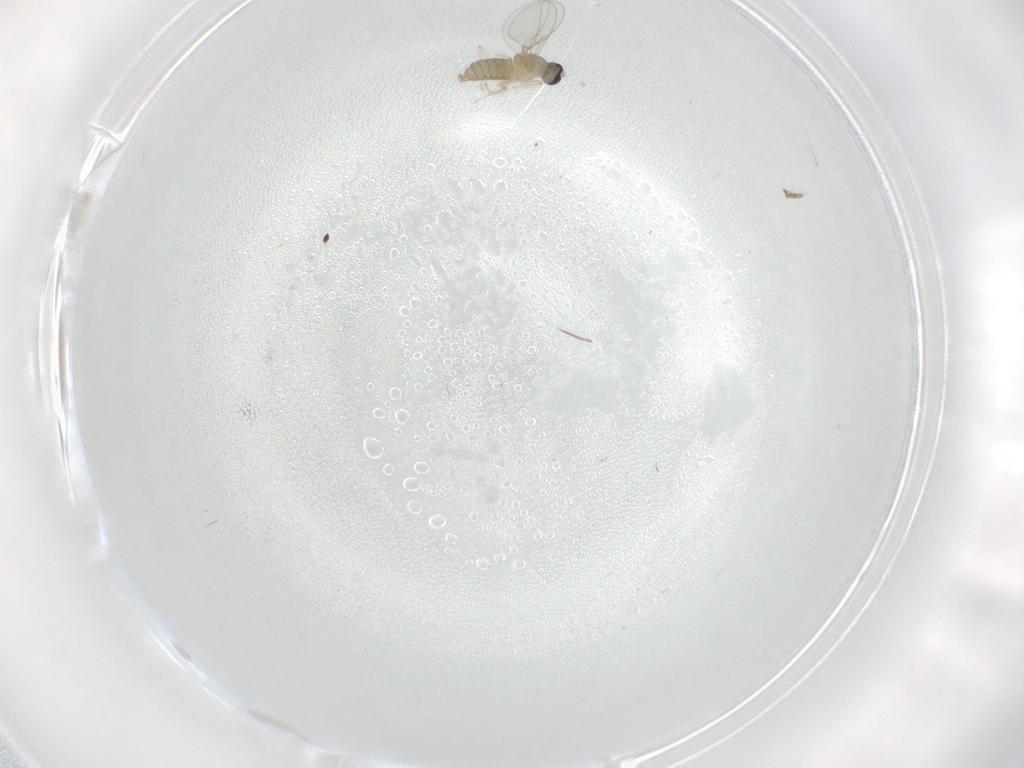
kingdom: Animalia
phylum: Arthropoda
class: Insecta
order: Diptera
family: Cecidomyiidae
